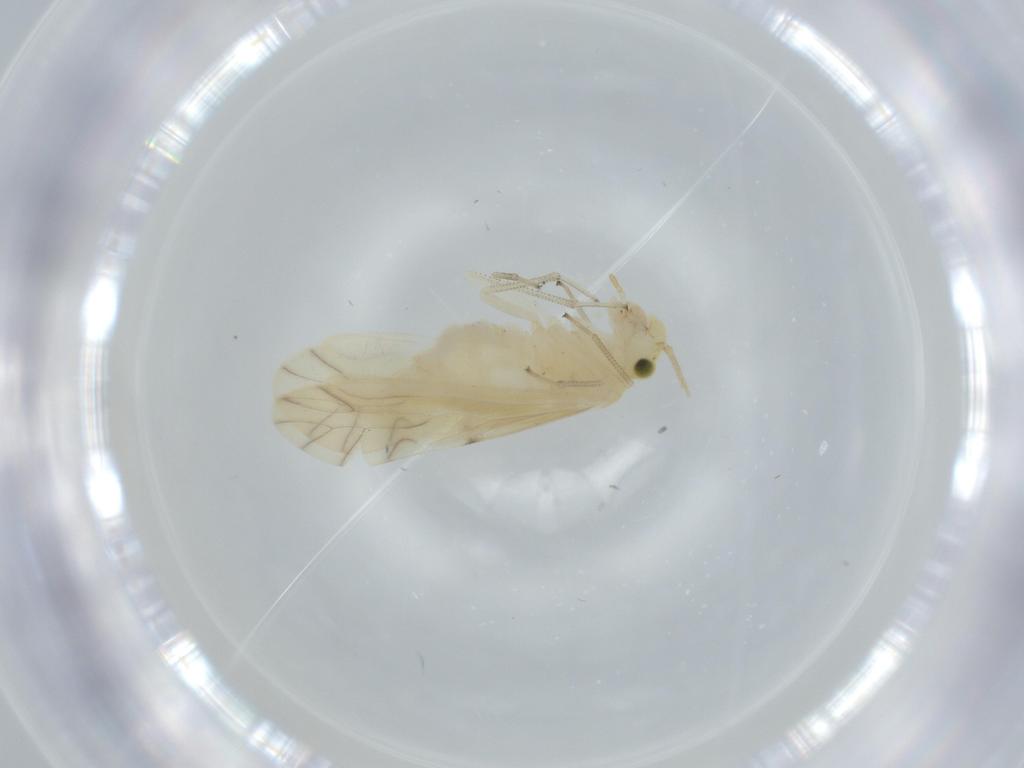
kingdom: Animalia
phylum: Arthropoda
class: Insecta
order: Psocodea
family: Caeciliusidae
